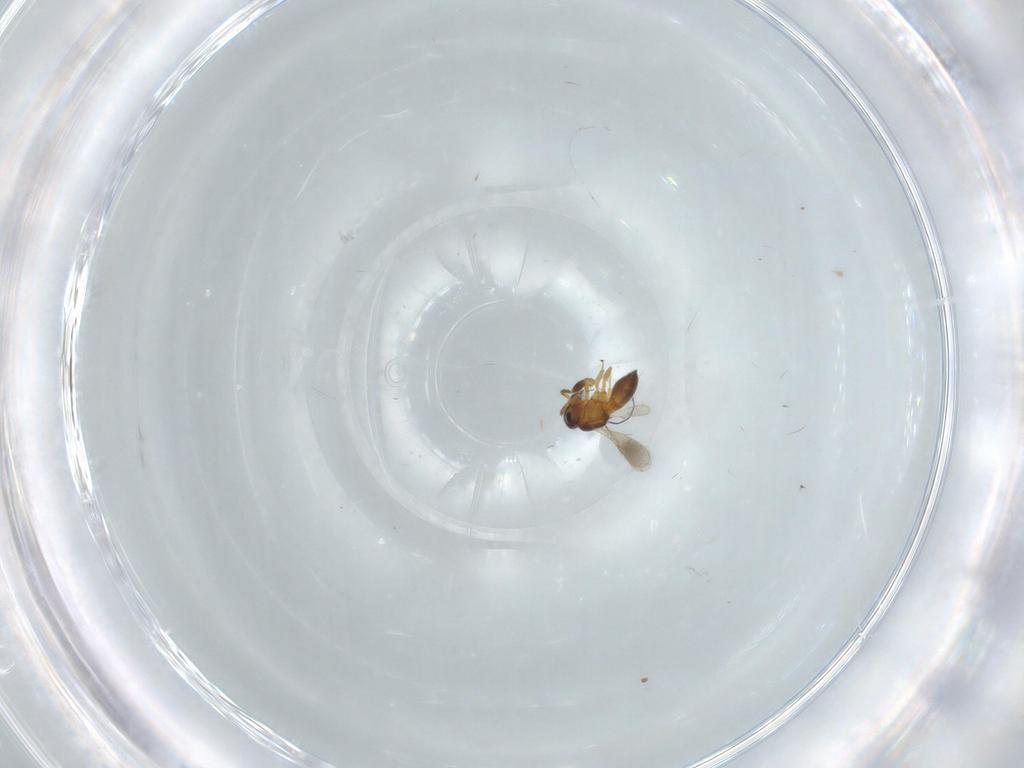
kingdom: Animalia
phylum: Arthropoda
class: Insecta
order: Hymenoptera
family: Scelionidae
